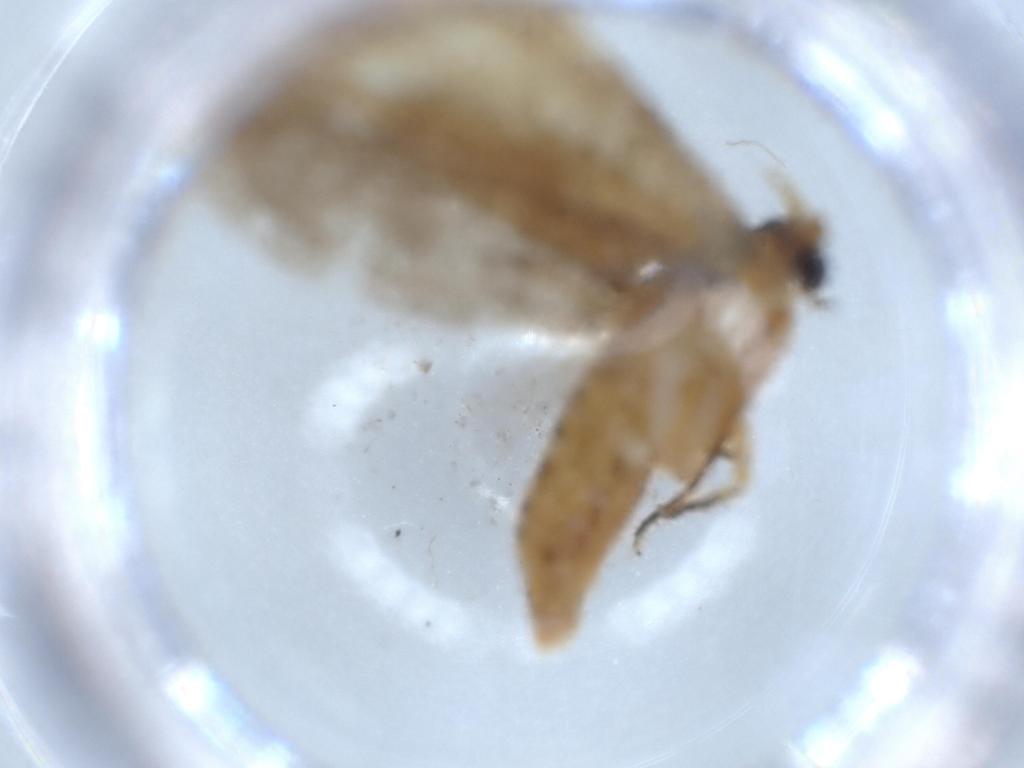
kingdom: Animalia
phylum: Arthropoda
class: Insecta
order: Lepidoptera
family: Tineidae
